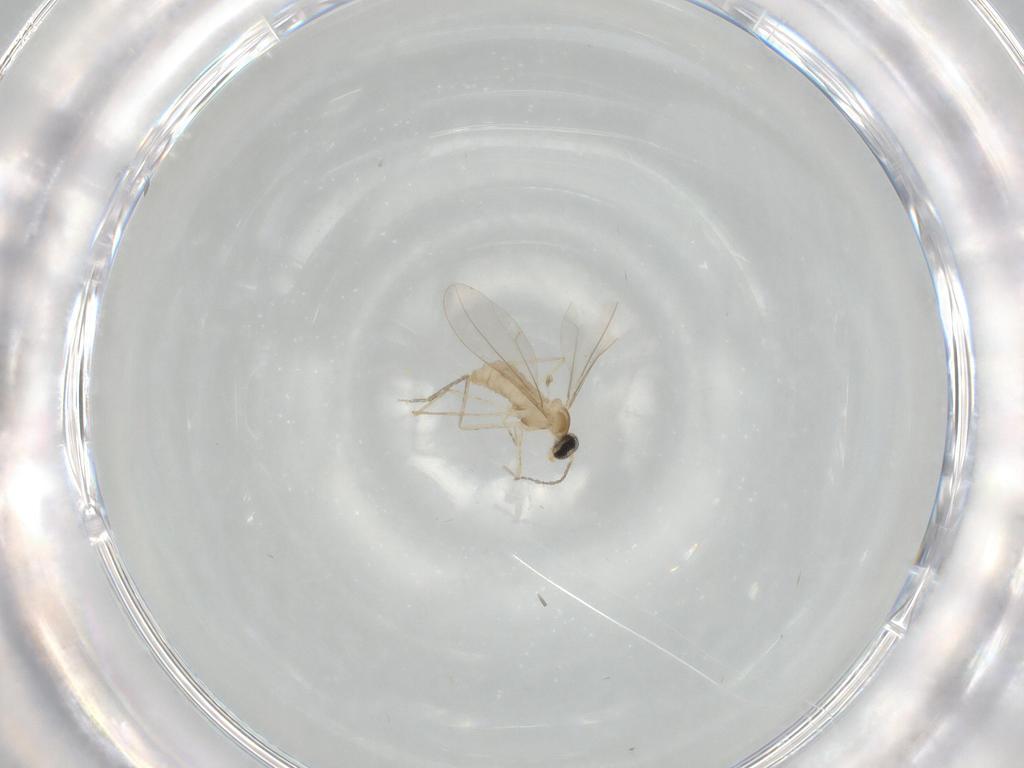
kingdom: Animalia
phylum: Arthropoda
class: Insecta
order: Diptera
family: Cecidomyiidae
